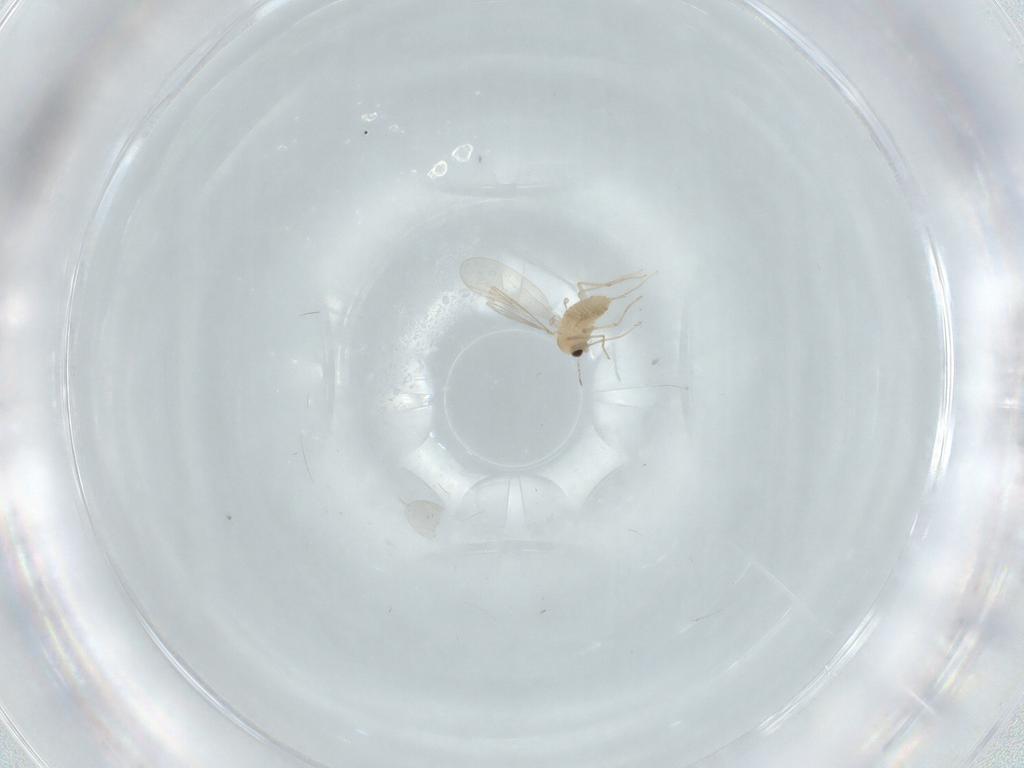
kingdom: Animalia
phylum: Arthropoda
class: Insecta
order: Diptera
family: Chironomidae
